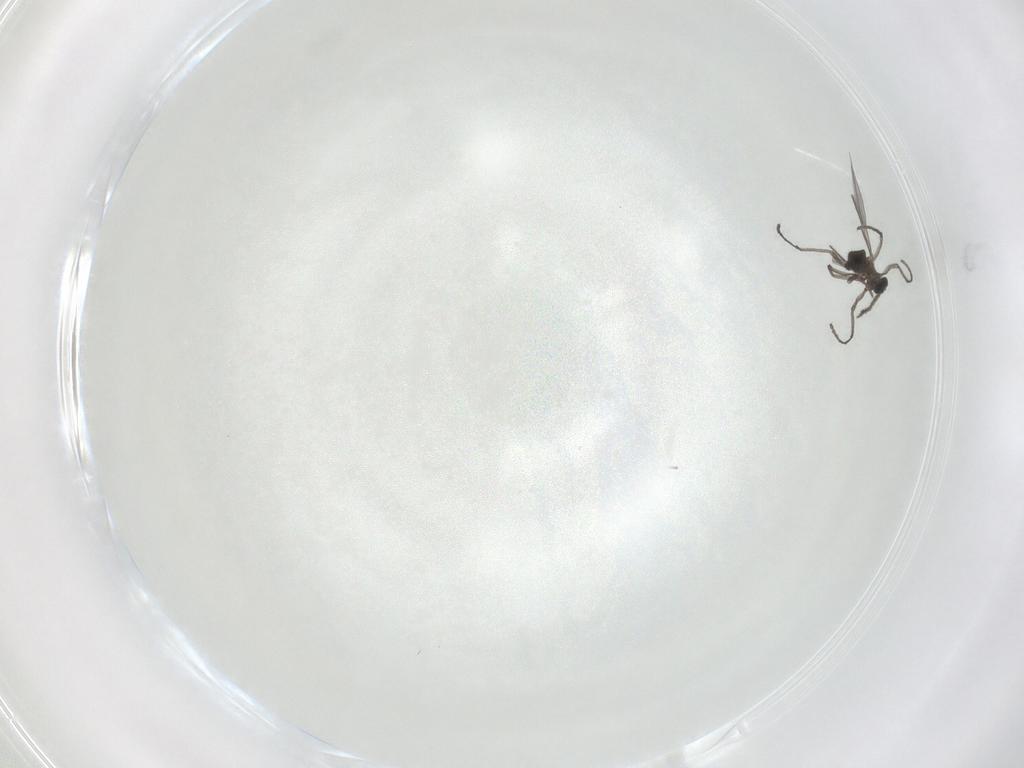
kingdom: Animalia
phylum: Arthropoda
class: Insecta
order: Diptera
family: Sciaridae
